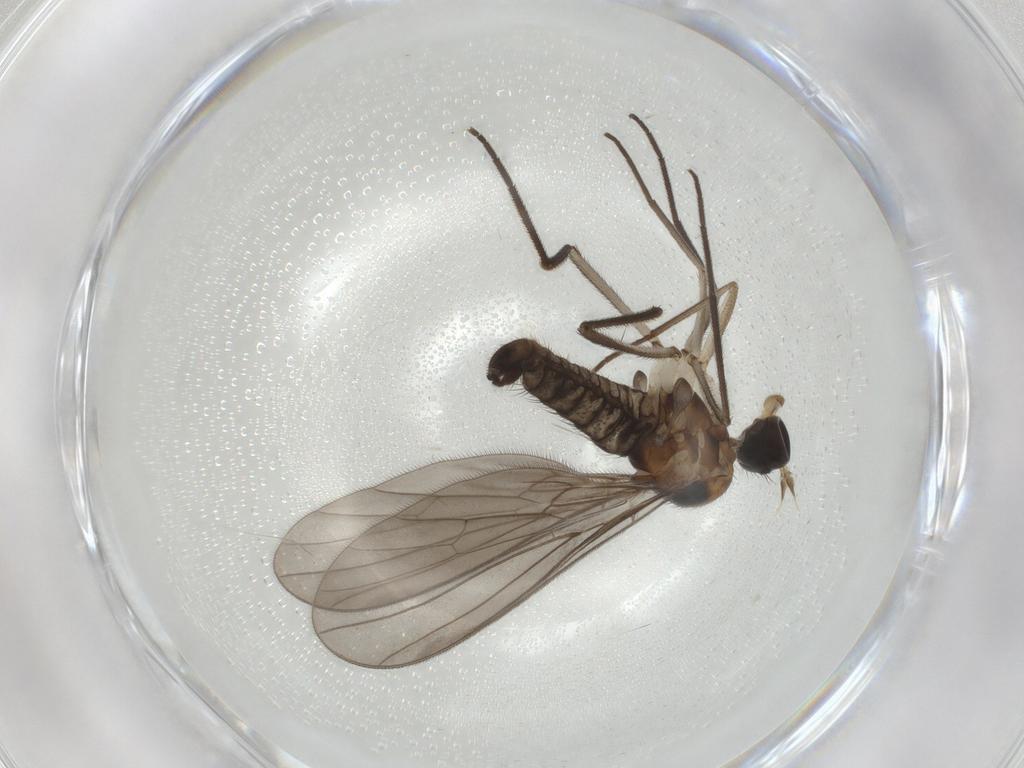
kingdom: Animalia
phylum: Arthropoda
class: Insecta
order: Diptera
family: Empididae
